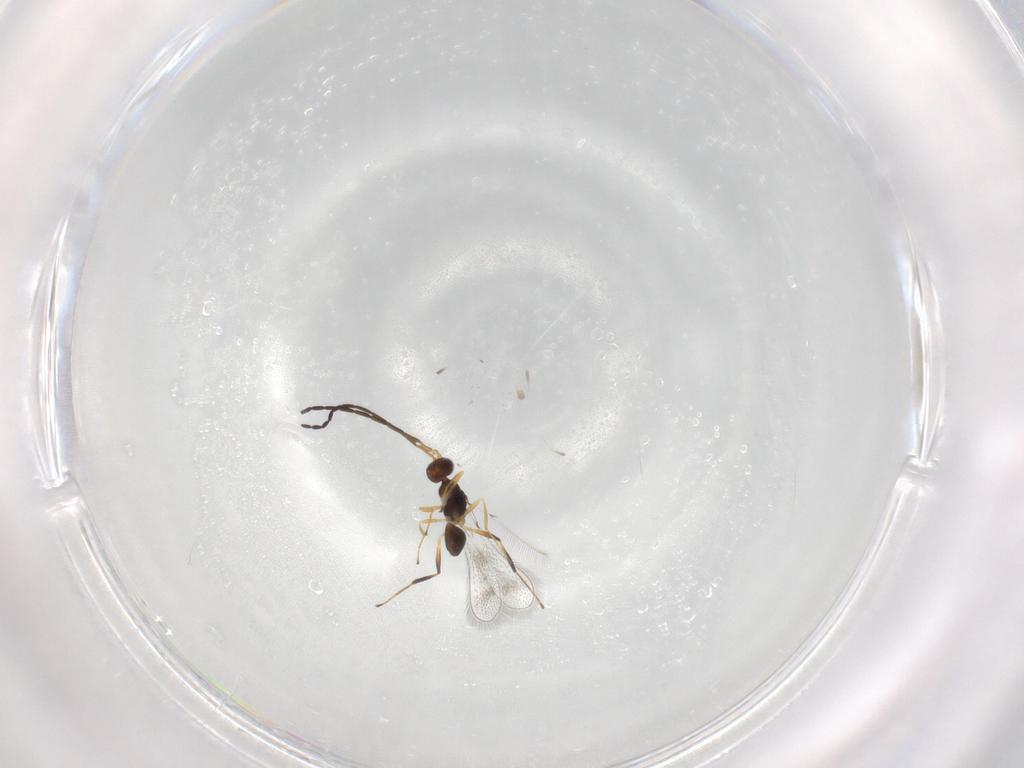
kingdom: Animalia
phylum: Arthropoda
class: Insecta
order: Hymenoptera
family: Mymaridae
